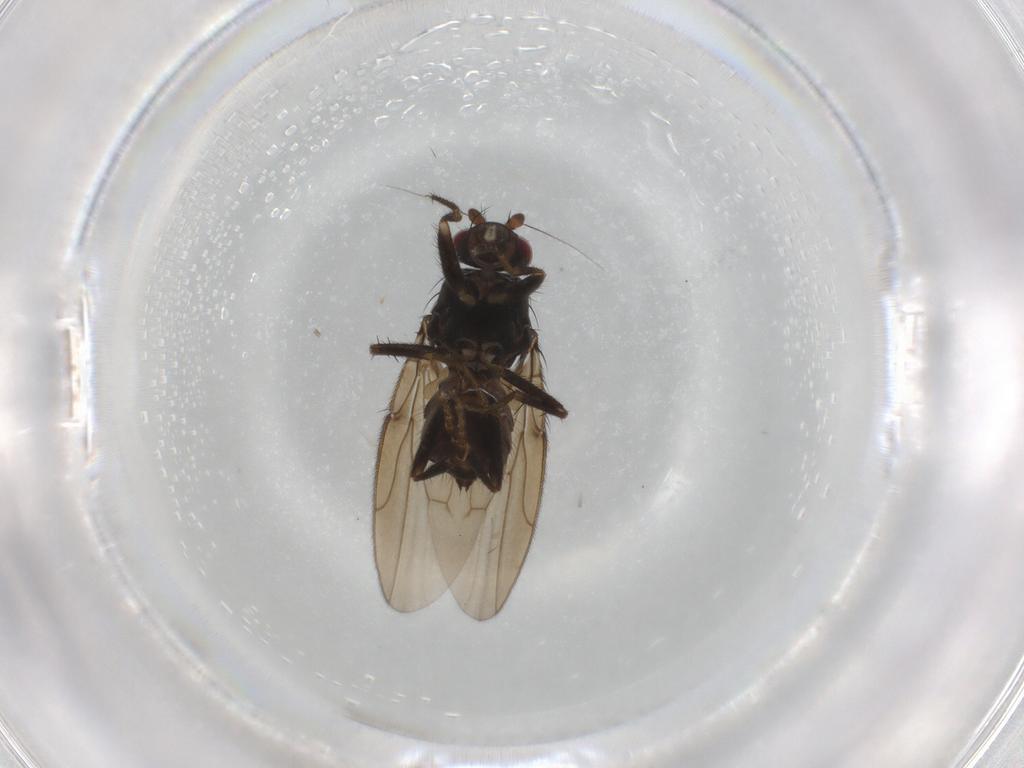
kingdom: Animalia
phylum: Arthropoda
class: Insecta
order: Diptera
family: Sphaeroceridae
